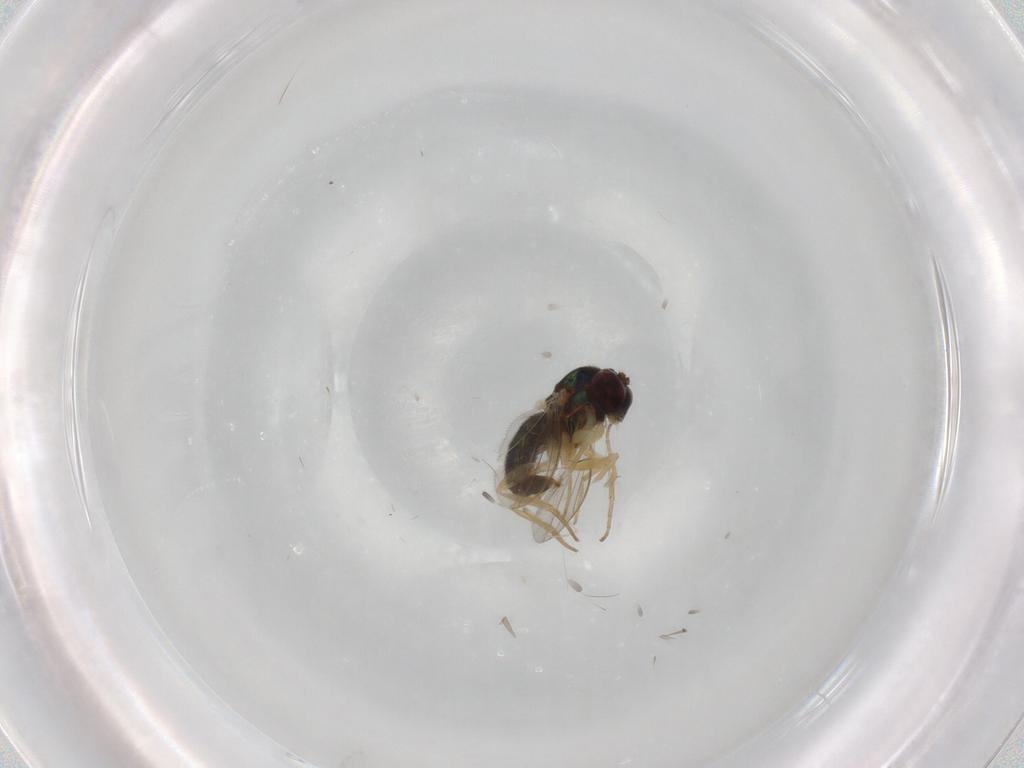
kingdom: Animalia
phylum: Arthropoda
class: Insecta
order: Diptera
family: Dolichopodidae
